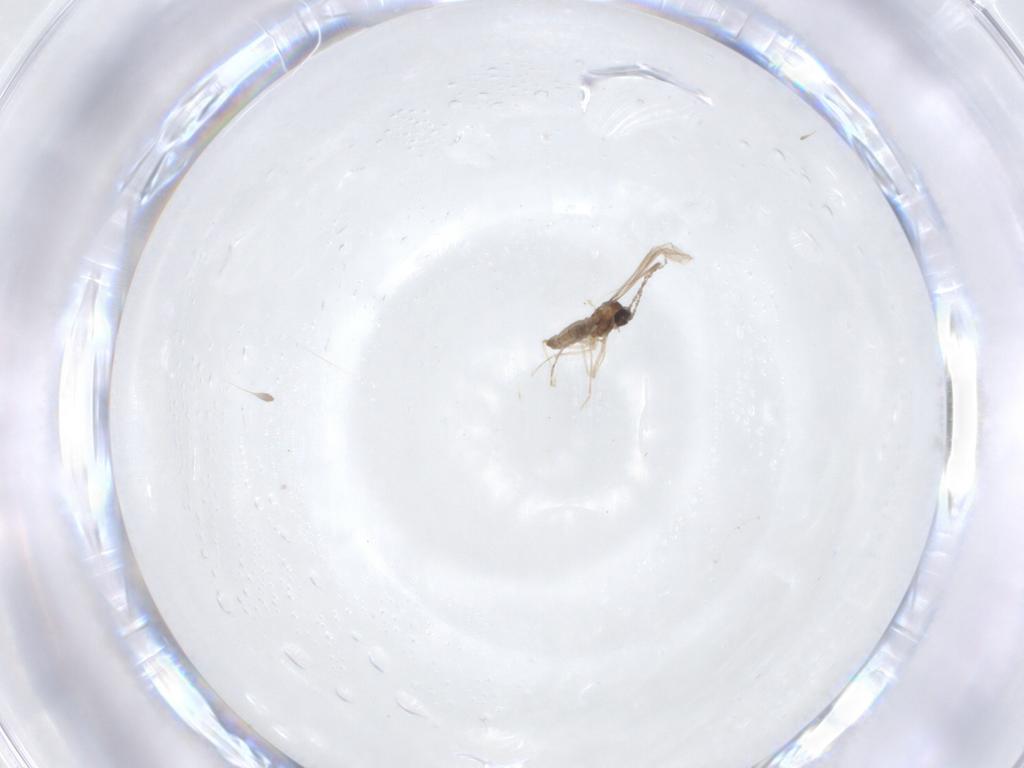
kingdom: Animalia
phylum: Arthropoda
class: Insecta
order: Diptera
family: Cecidomyiidae
